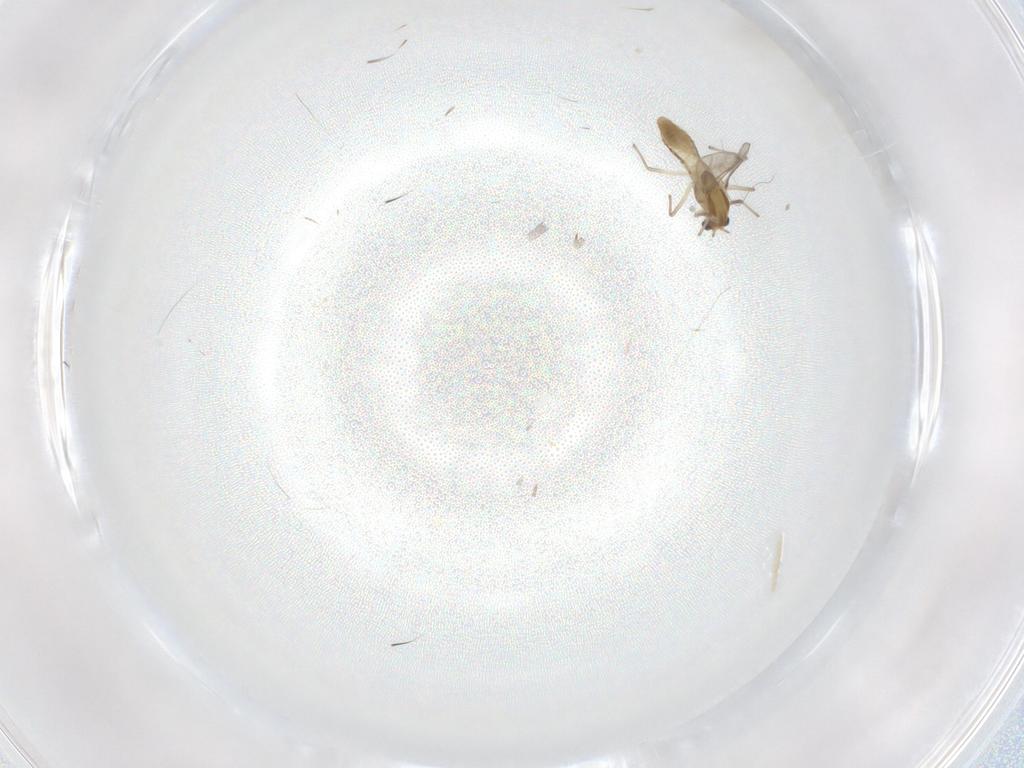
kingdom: Animalia
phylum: Arthropoda
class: Insecta
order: Diptera
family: Chironomidae
